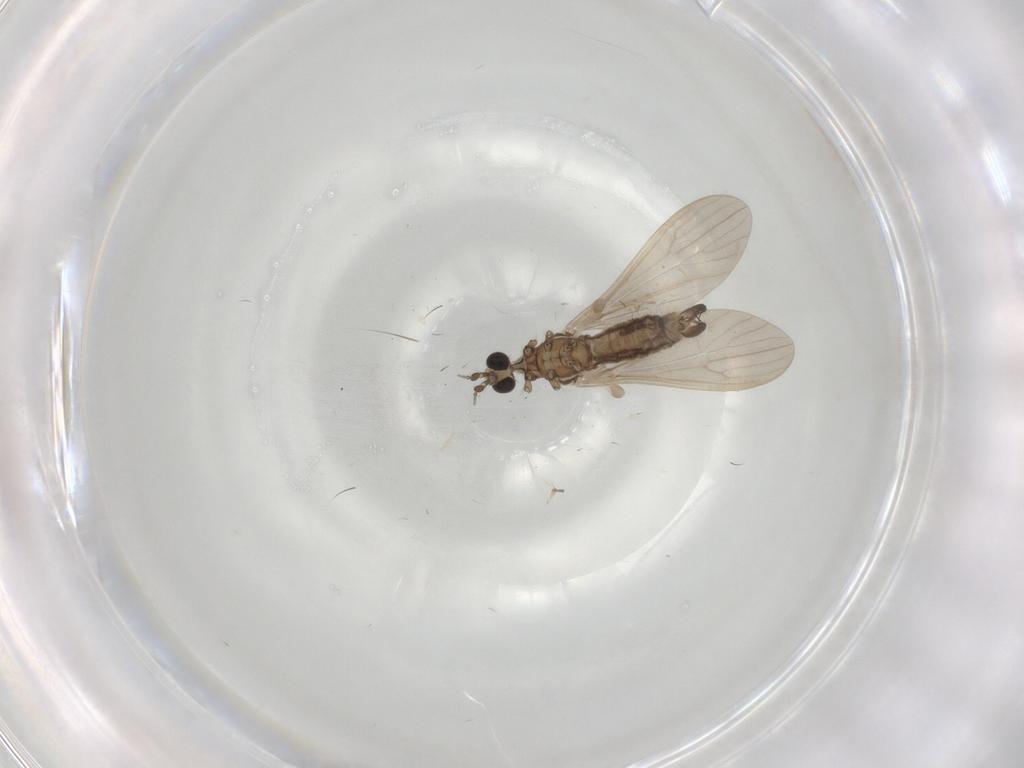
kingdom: Animalia
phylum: Arthropoda
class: Insecta
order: Diptera
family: Limoniidae
